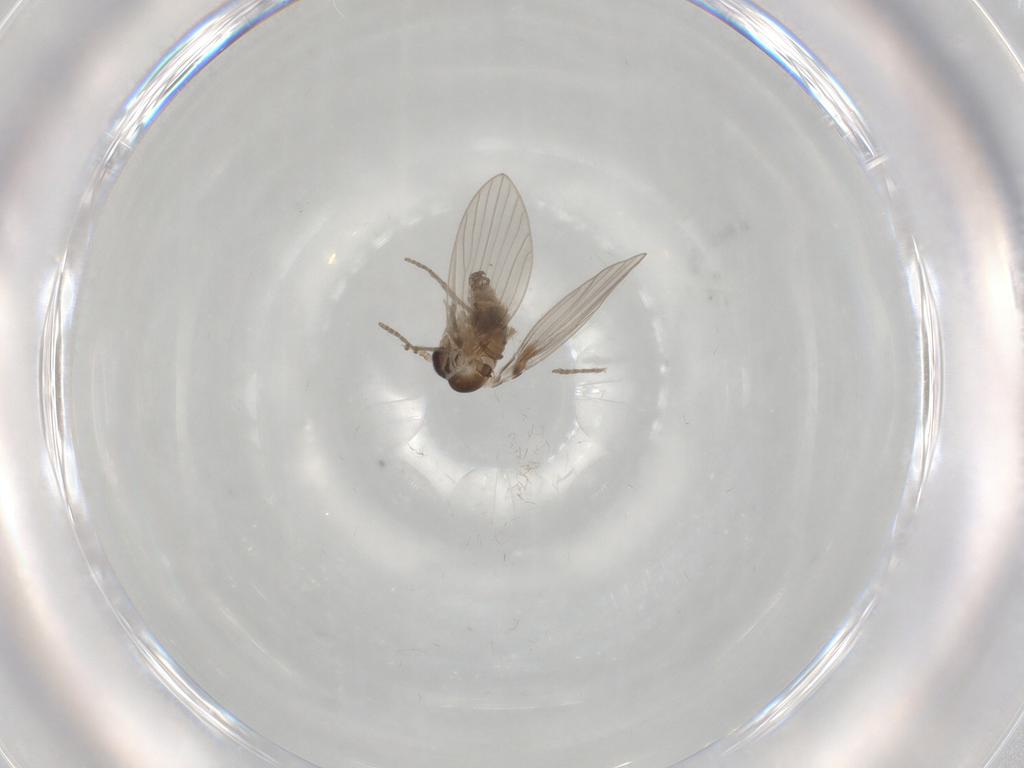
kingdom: Animalia
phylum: Arthropoda
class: Insecta
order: Diptera
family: Limoniidae
